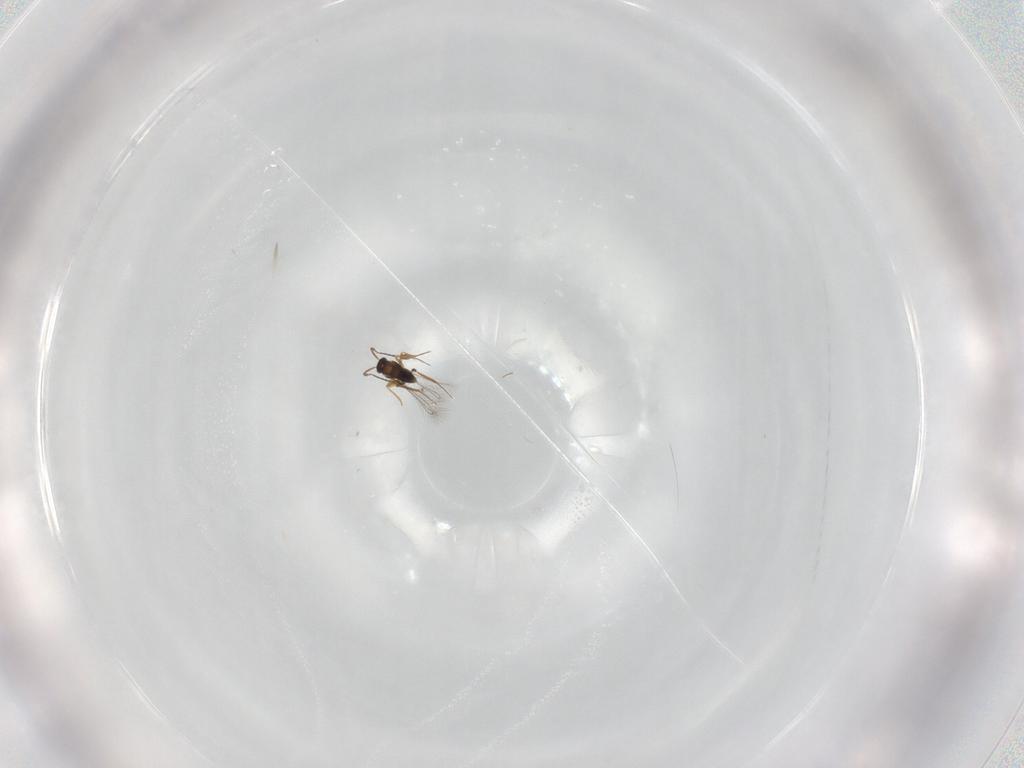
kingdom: Animalia
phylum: Arthropoda
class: Insecta
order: Hymenoptera
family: Mymaridae
